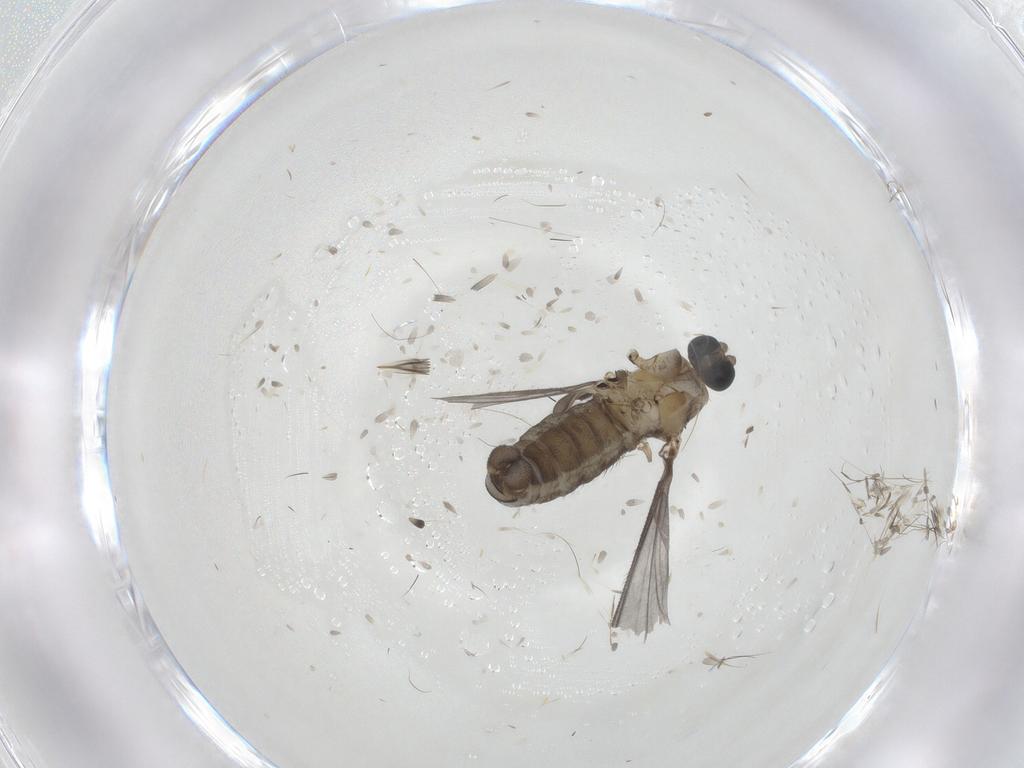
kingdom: Animalia
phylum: Arthropoda
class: Insecta
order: Diptera
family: Sciaridae
